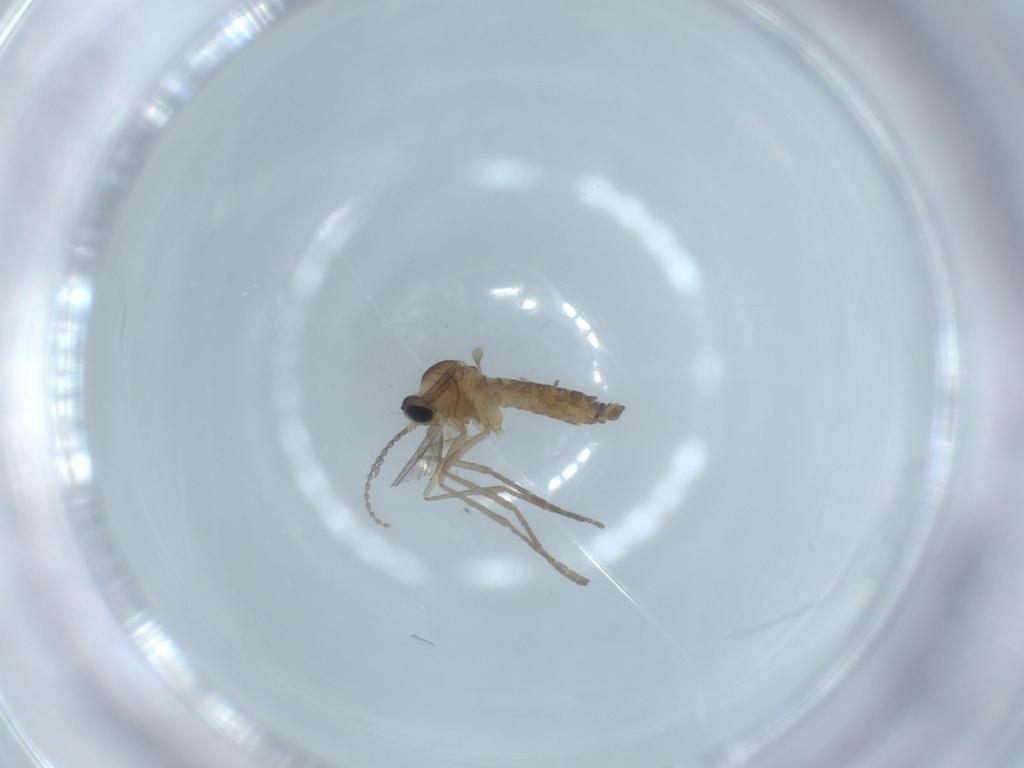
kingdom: Animalia
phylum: Arthropoda
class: Insecta
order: Diptera
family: Cecidomyiidae
